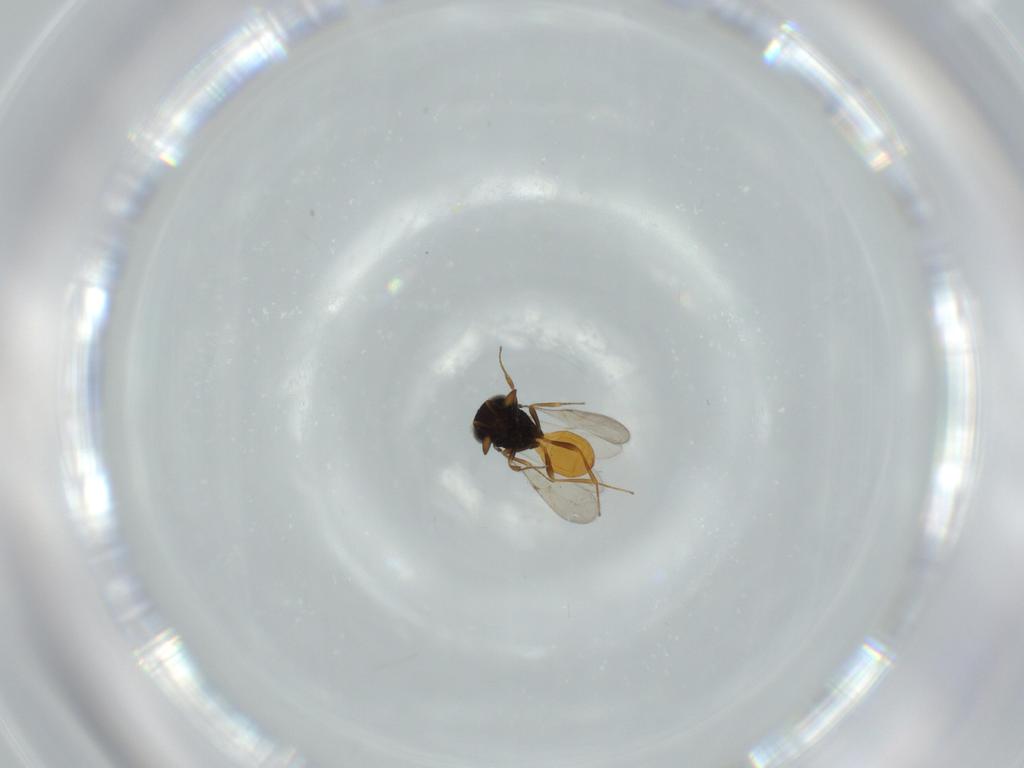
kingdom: Animalia
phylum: Arthropoda
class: Insecta
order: Hymenoptera
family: Scelionidae
